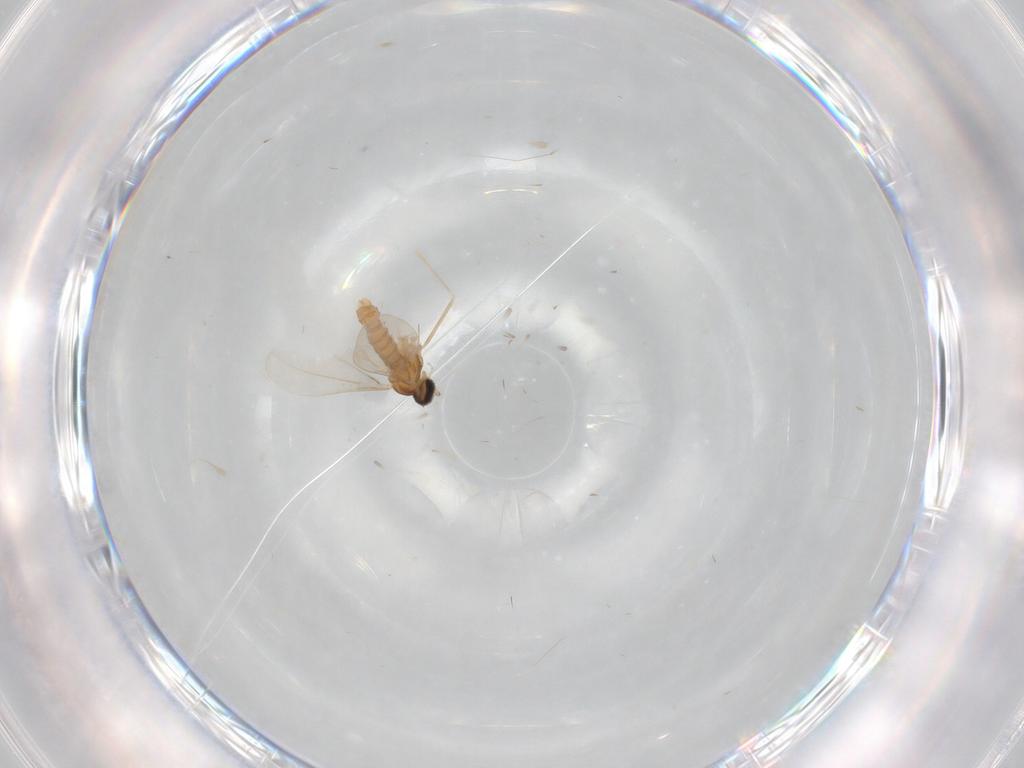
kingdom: Animalia
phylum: Arthropoda
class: Insecta
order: Diptera
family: Cecidomyiidae
